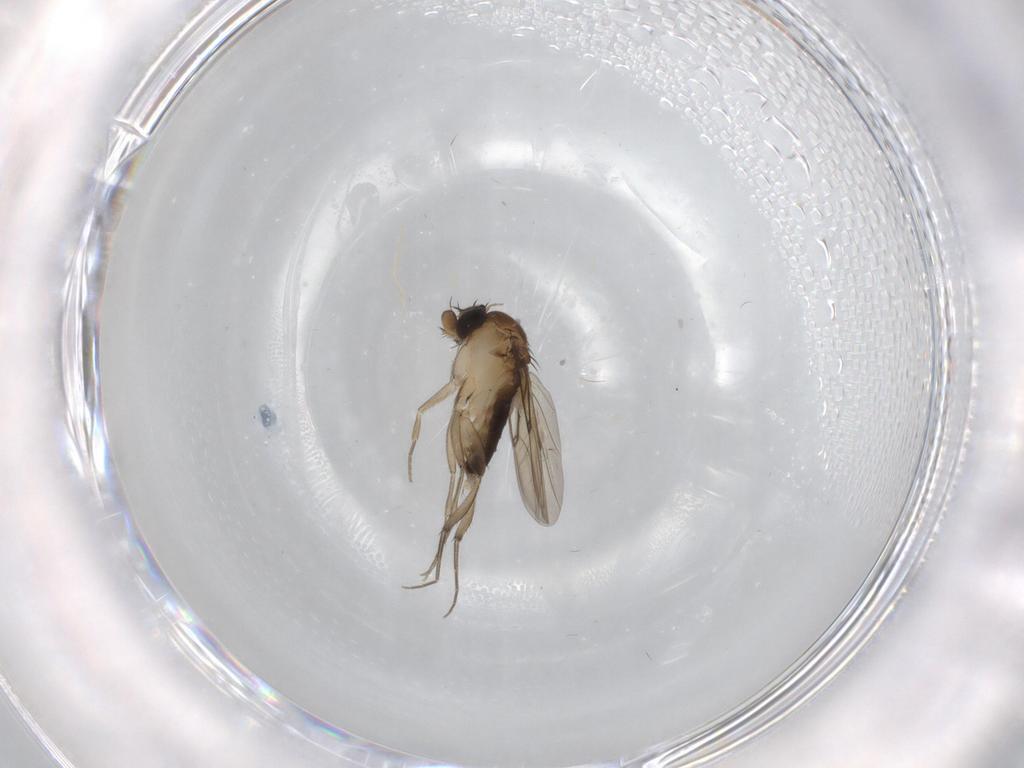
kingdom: Animalia
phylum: Arthropoda
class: Insecta
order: Diptera
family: Phoridae
